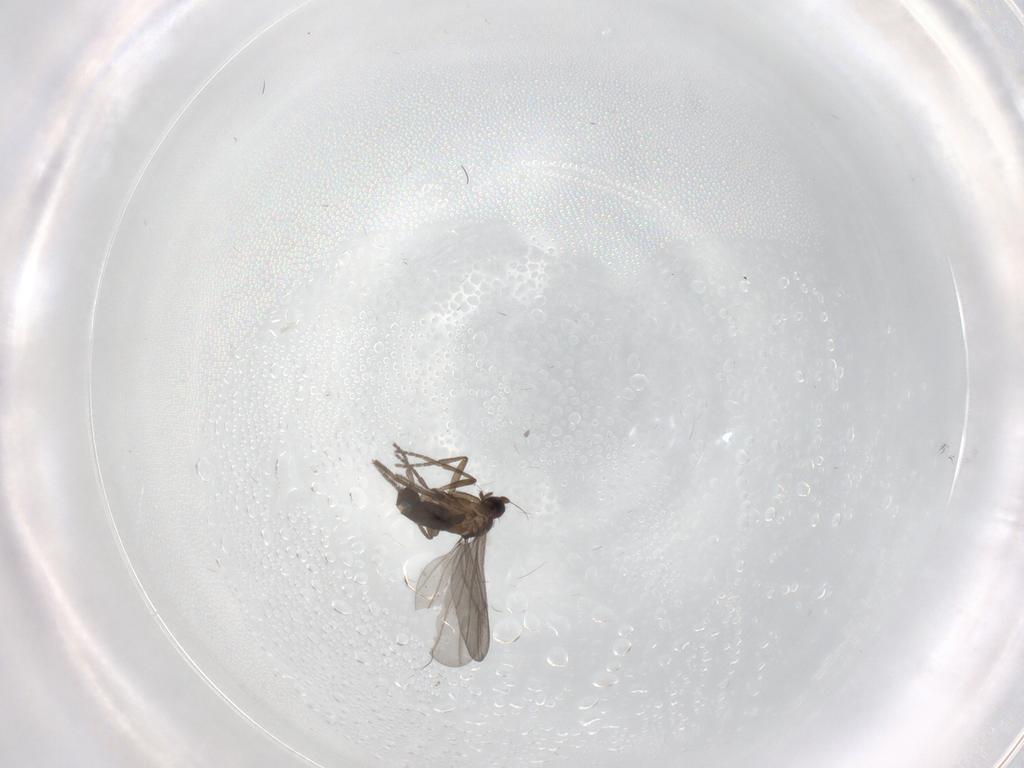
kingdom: Animalia
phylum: Arthropoda
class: Insecta
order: Diptera
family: Phoridae
